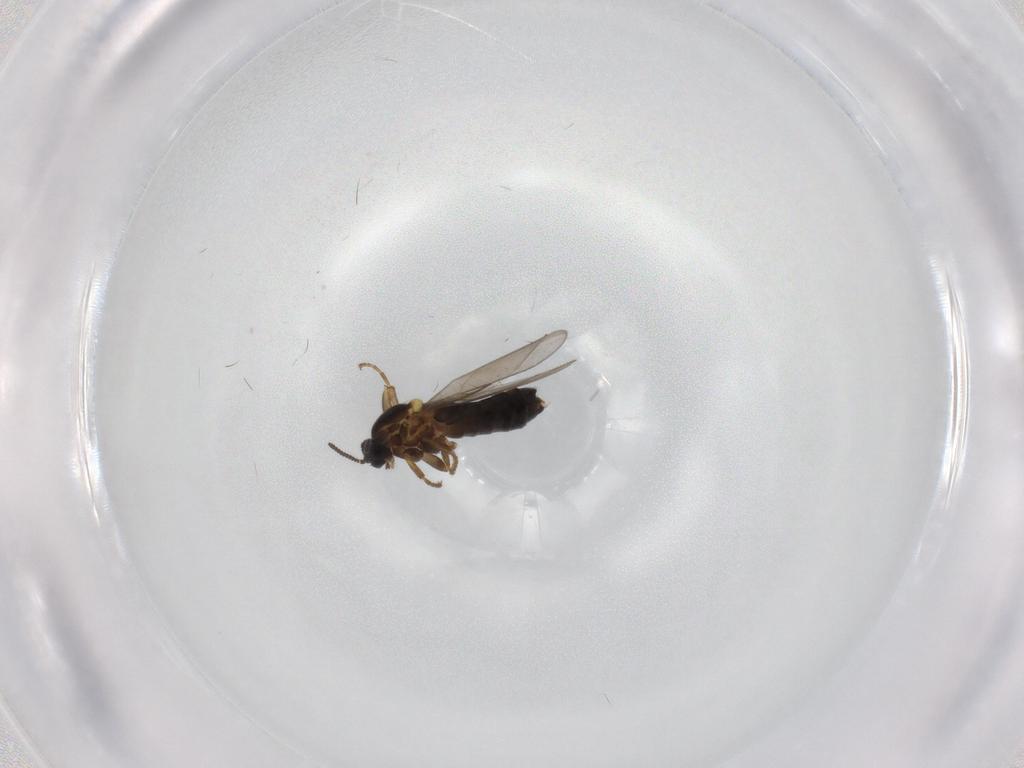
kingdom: Animalia
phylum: Arthropoda
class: Insecta
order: Diptera
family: Scatopsidae
